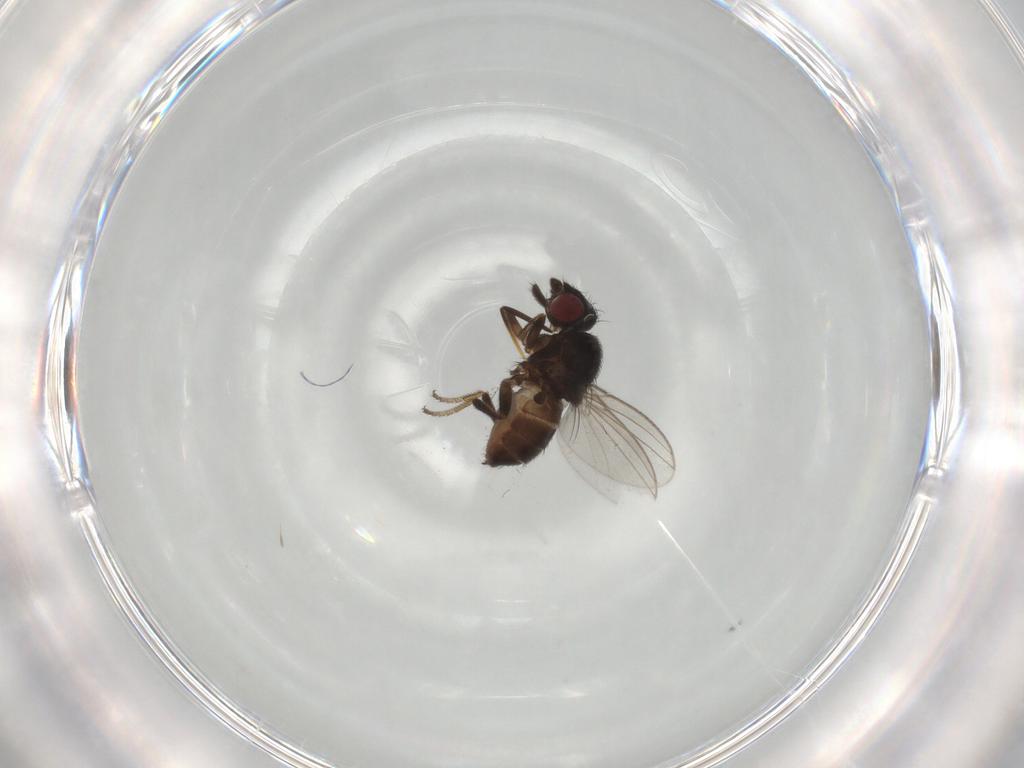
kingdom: Animalia
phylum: Arthropoda
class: Insecta
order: Diptera
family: Milichiidae
